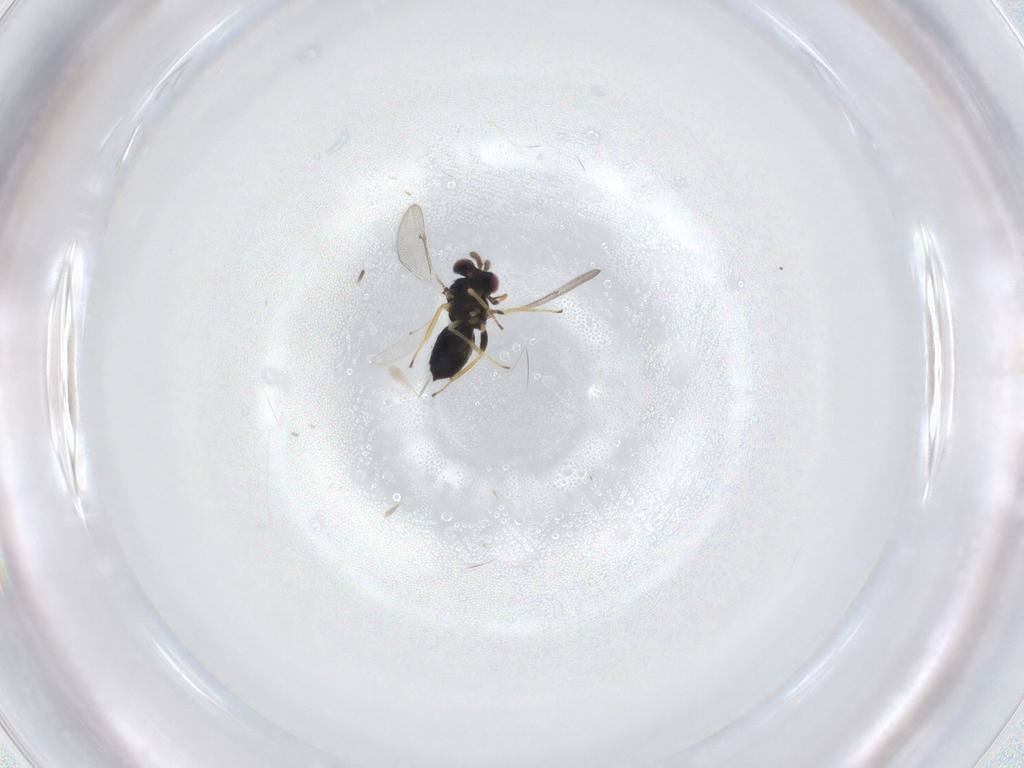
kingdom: Animalia
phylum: Arthropoda
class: Insecta
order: Hymenoptera
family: Eulophidae
